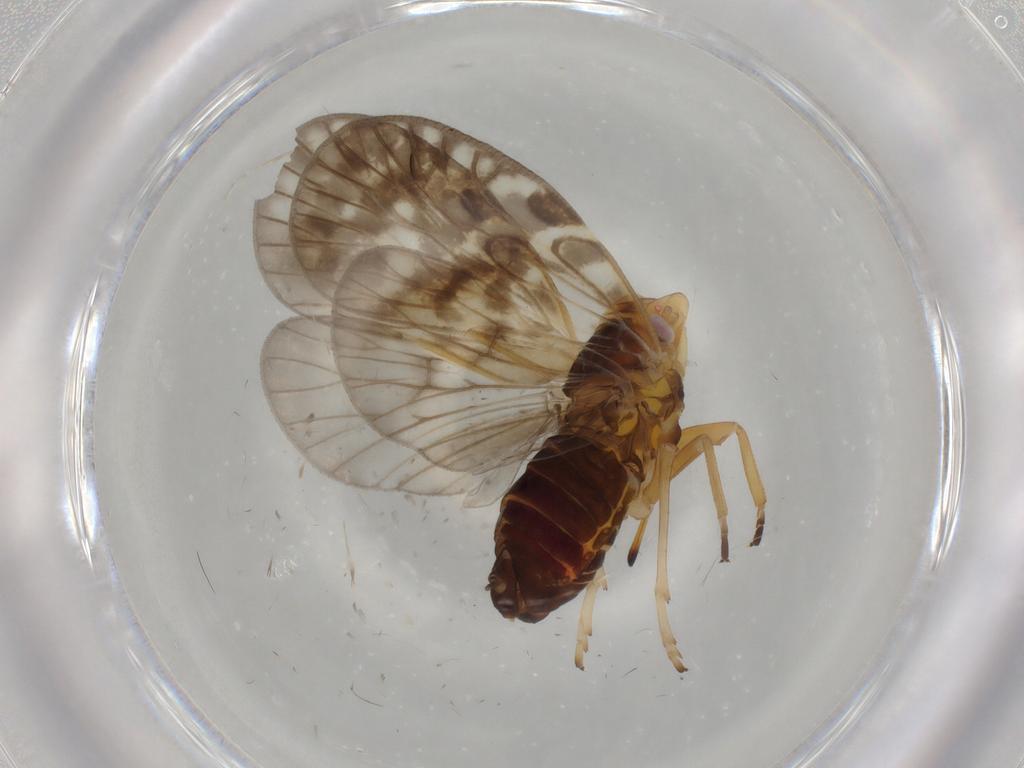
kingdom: Animalia
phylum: Arthropoda
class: Insecta
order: Hemiptera
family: Cixiidae
